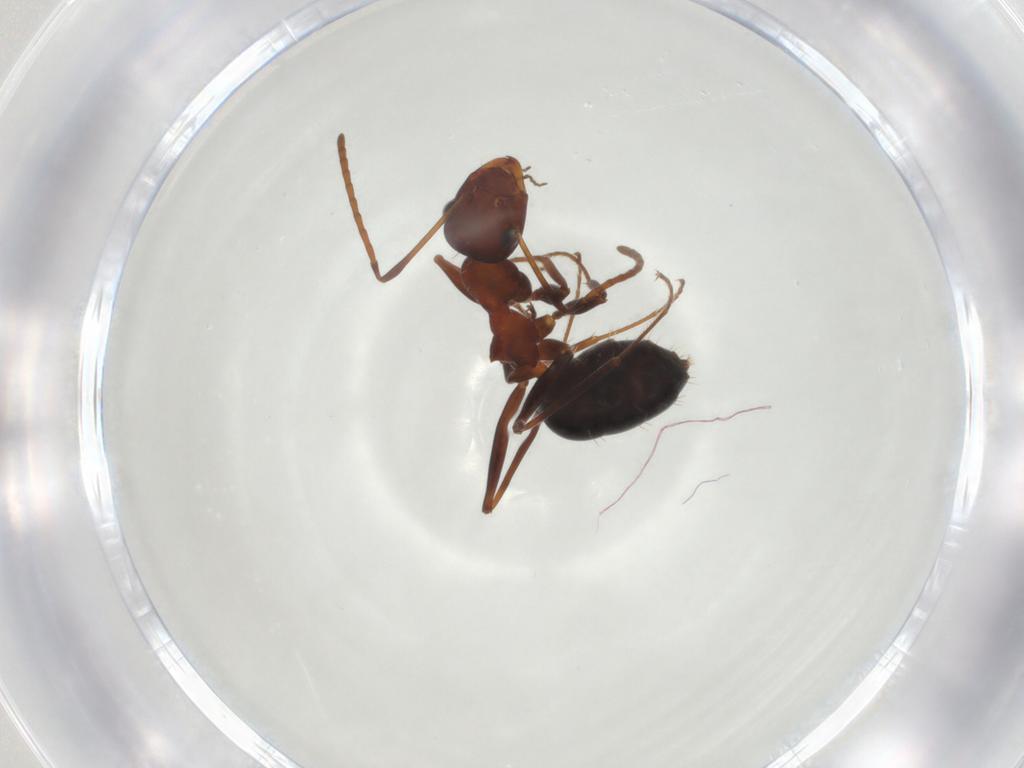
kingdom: Animalia
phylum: Arthropoda
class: Insecta
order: Hymenoptera
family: Formicidae
